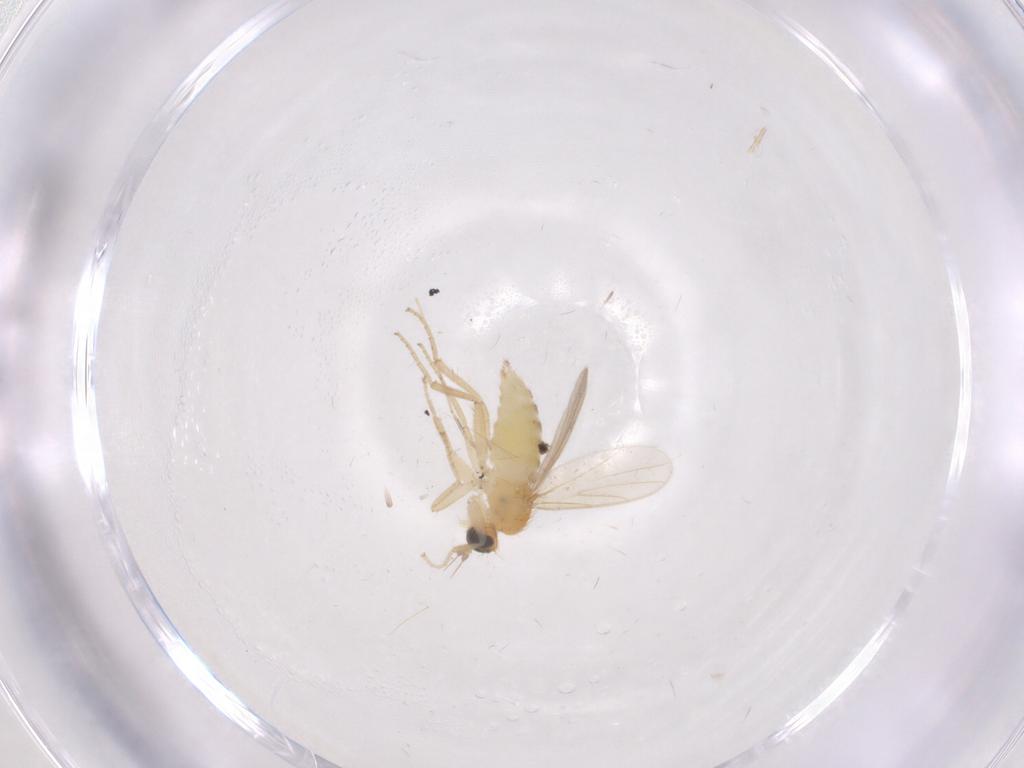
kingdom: Animalia
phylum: Arthropoda
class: Insecta
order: Diptera
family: Hybotidae
